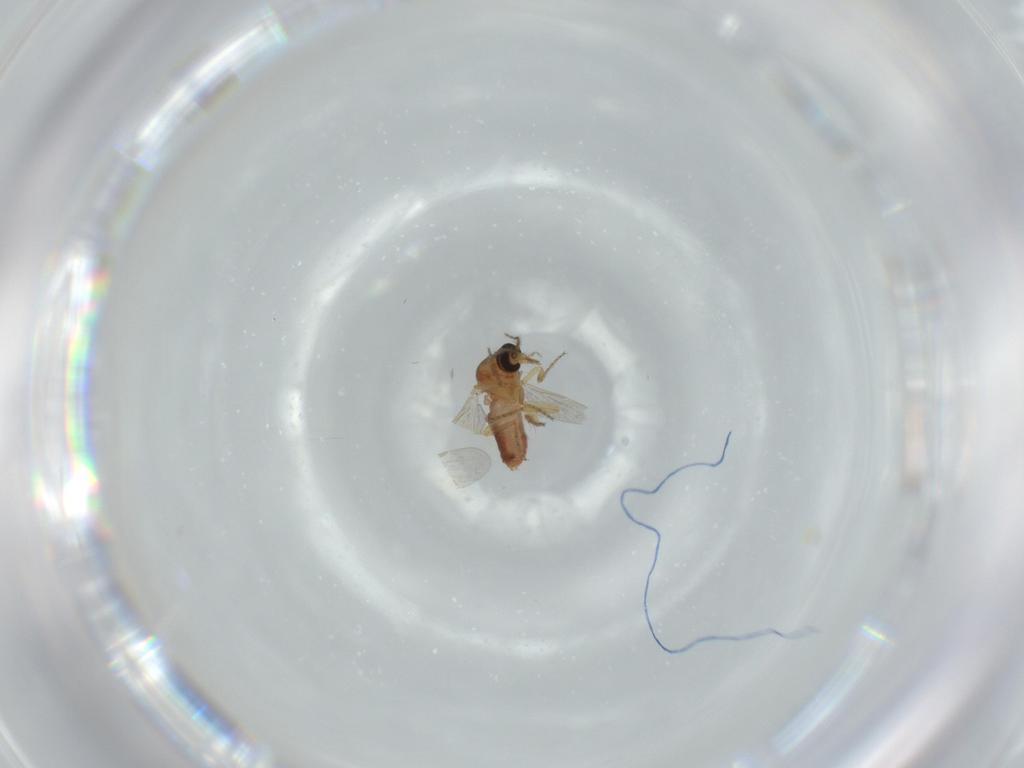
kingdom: Animalia
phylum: Arthropoda
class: Insecta
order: Diptera
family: Ceratopogonidae
